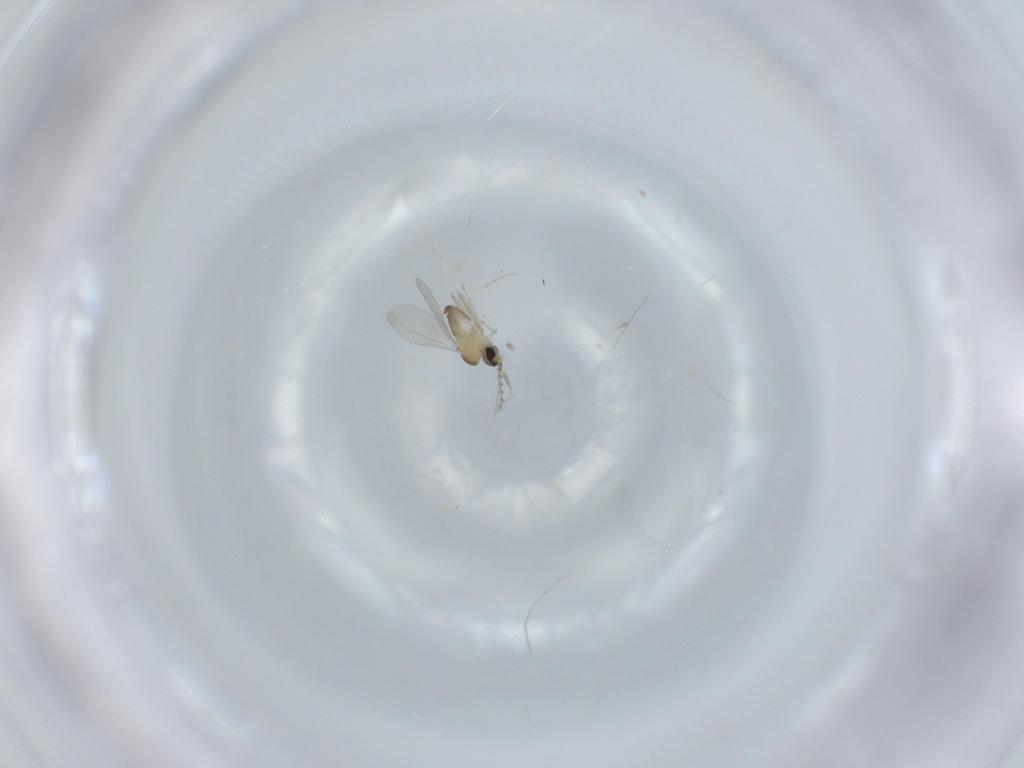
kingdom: Animalia
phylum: Arthropoda
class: Insecta
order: Diptera
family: Cecidomyiidae
